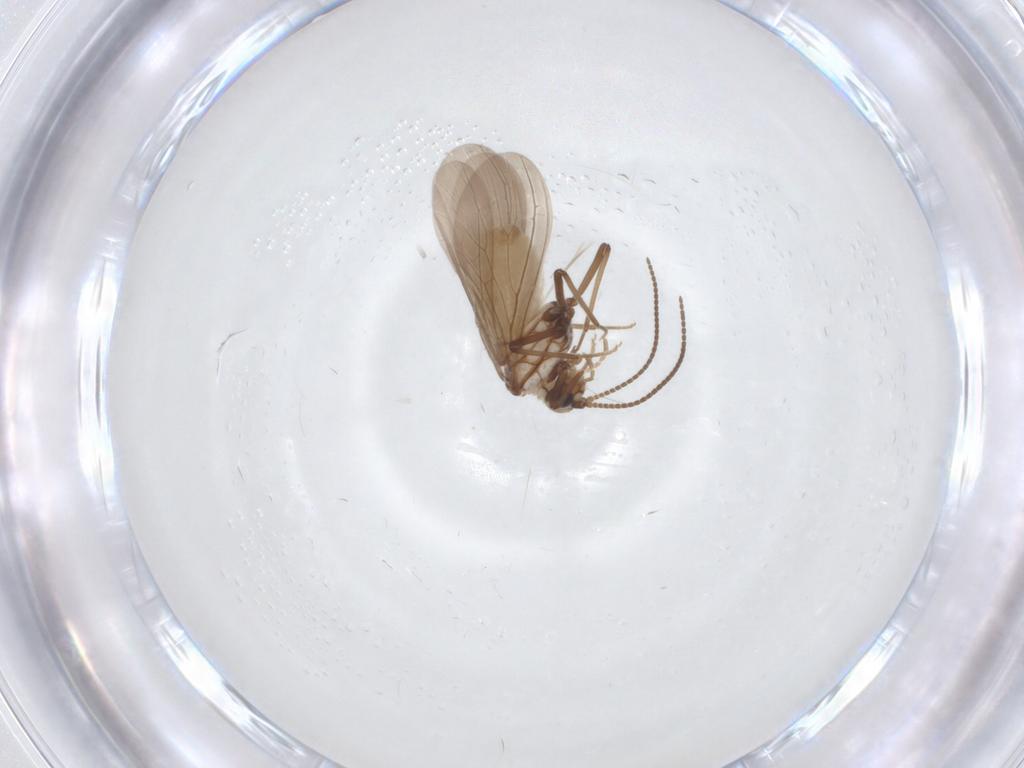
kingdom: Animalia
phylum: Arthropoda
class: Insecta
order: Neuroptera
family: Coniopterygidae
